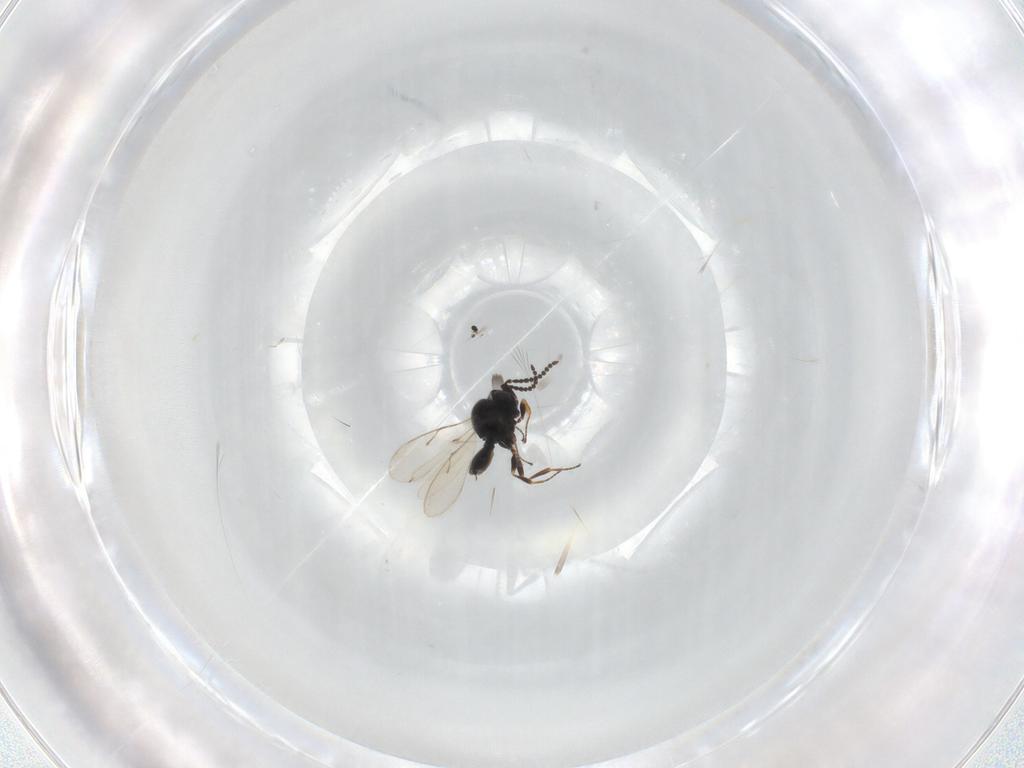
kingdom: Animalia
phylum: Arthropoda
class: Insecta
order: Hymenoptera
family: Scelionidae
